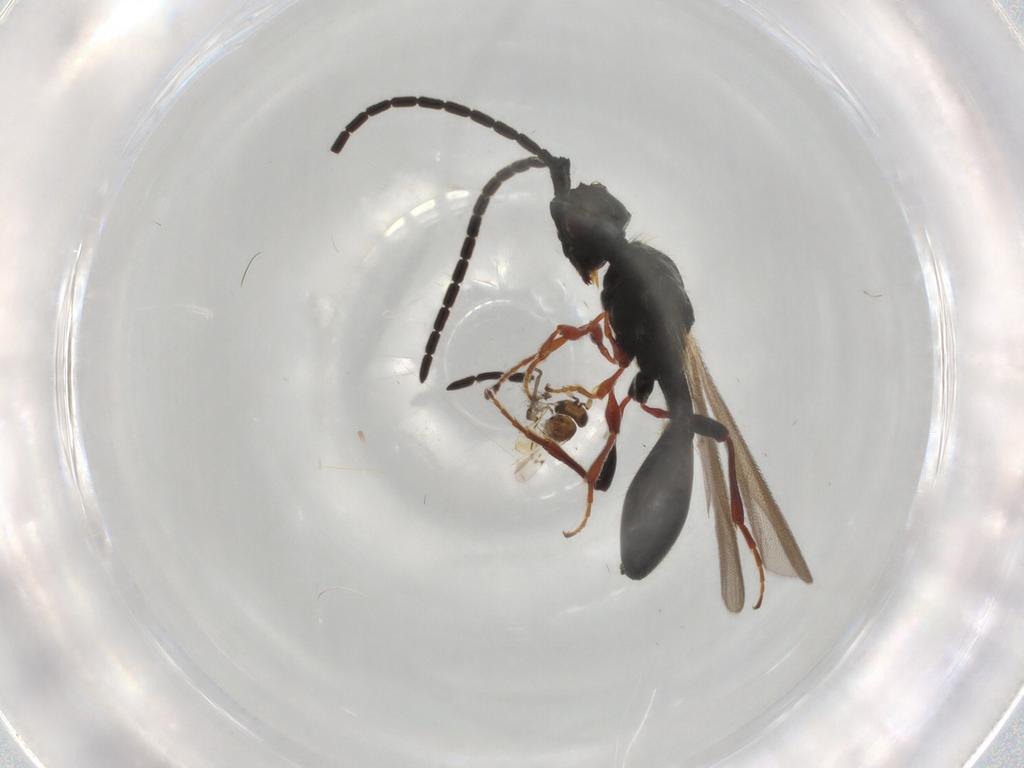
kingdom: Animalia
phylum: Arthropoda
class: Insecta
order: Hymenoptera
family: Scelionidae
